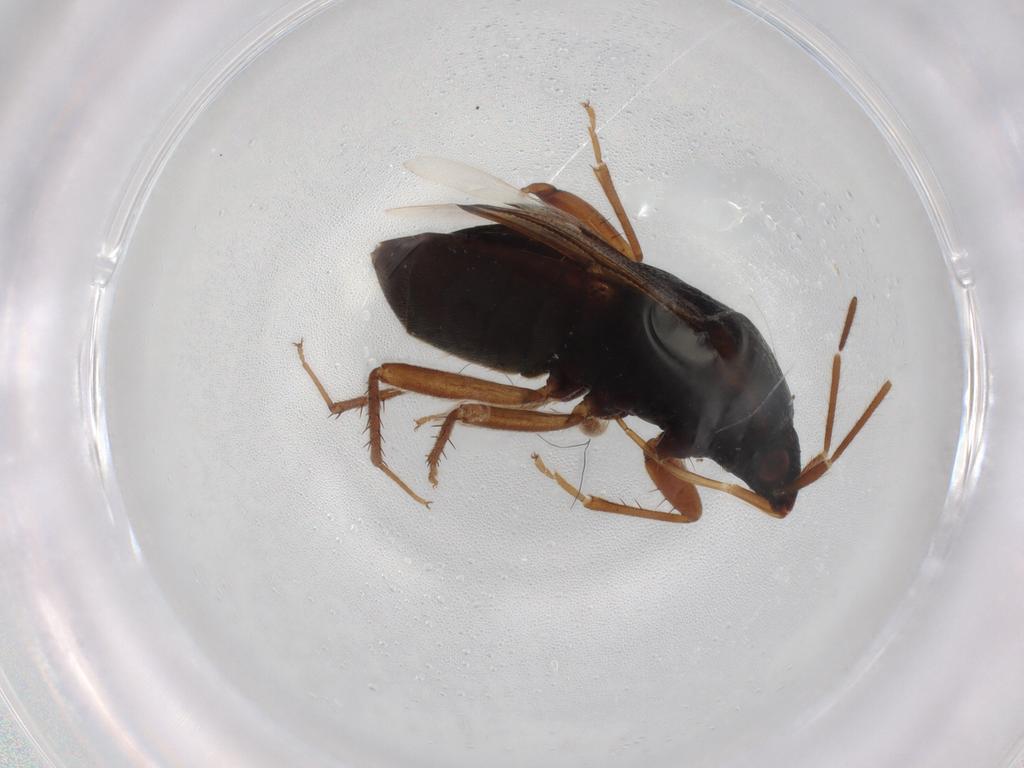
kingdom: Animalia
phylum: Arthropoda
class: Insecta
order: Hemiptera
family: Rhyparochromidae
